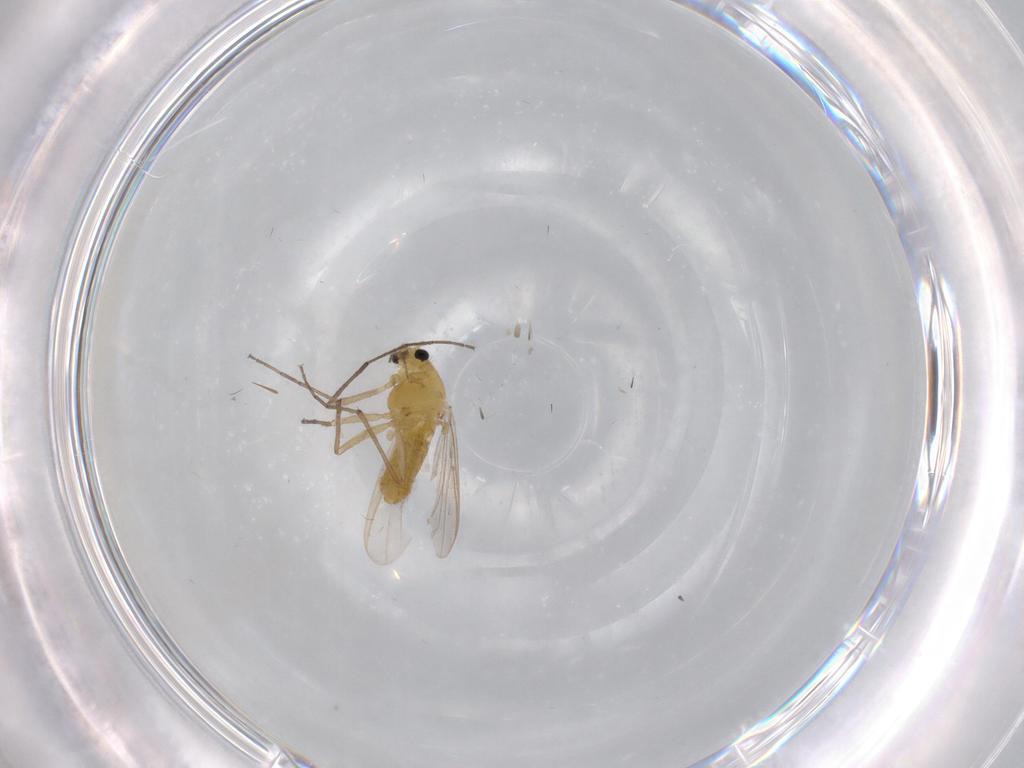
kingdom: Animalia
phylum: Arthropoda
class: Insecta
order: Diptera
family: Chironomidae
